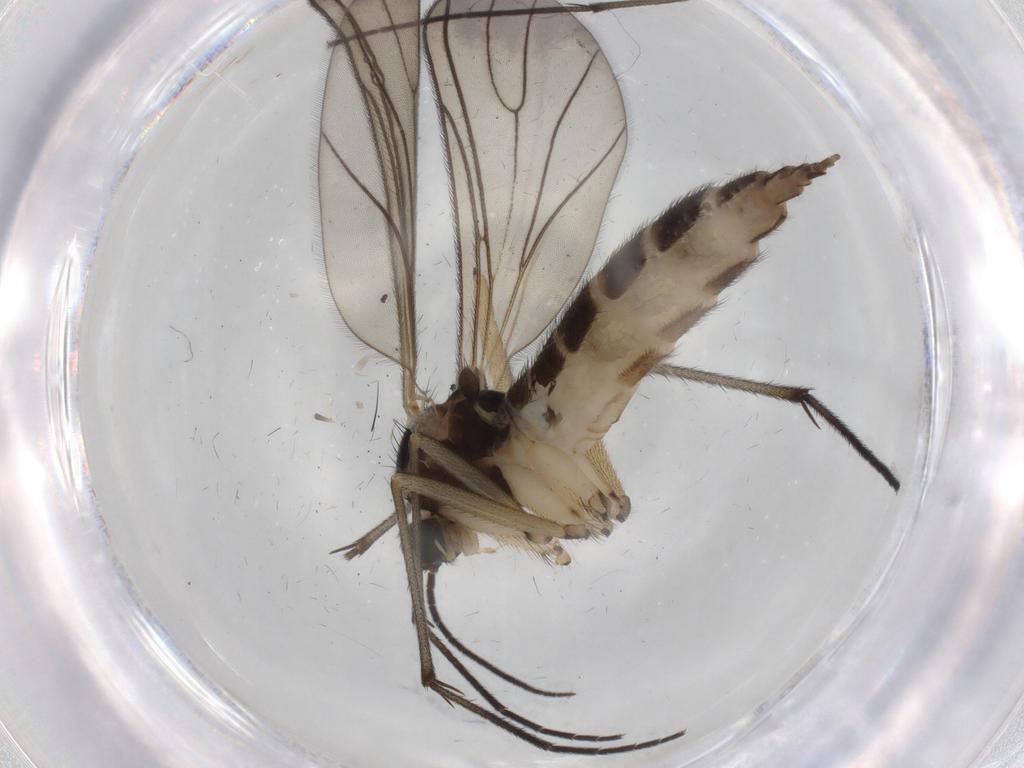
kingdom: Animalia
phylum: Arthropoda
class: Insecta
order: Diptera
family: Sciaridae
